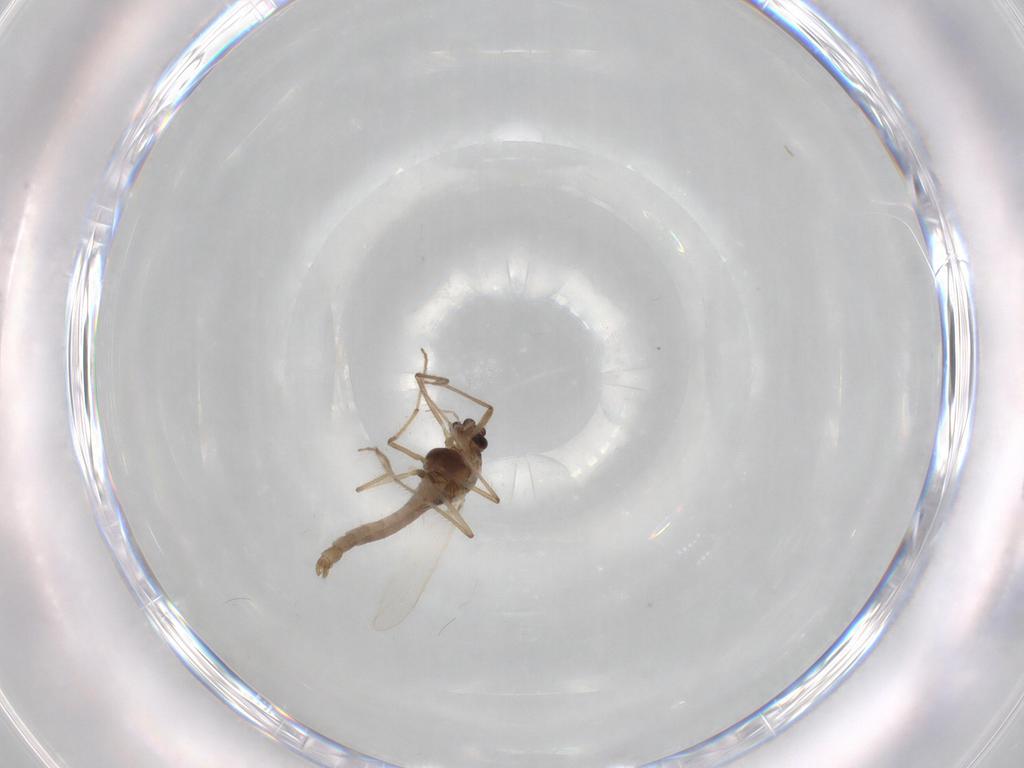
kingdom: Animalia
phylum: Arthropoda
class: Insecta
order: Diptera
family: Chironomidae
